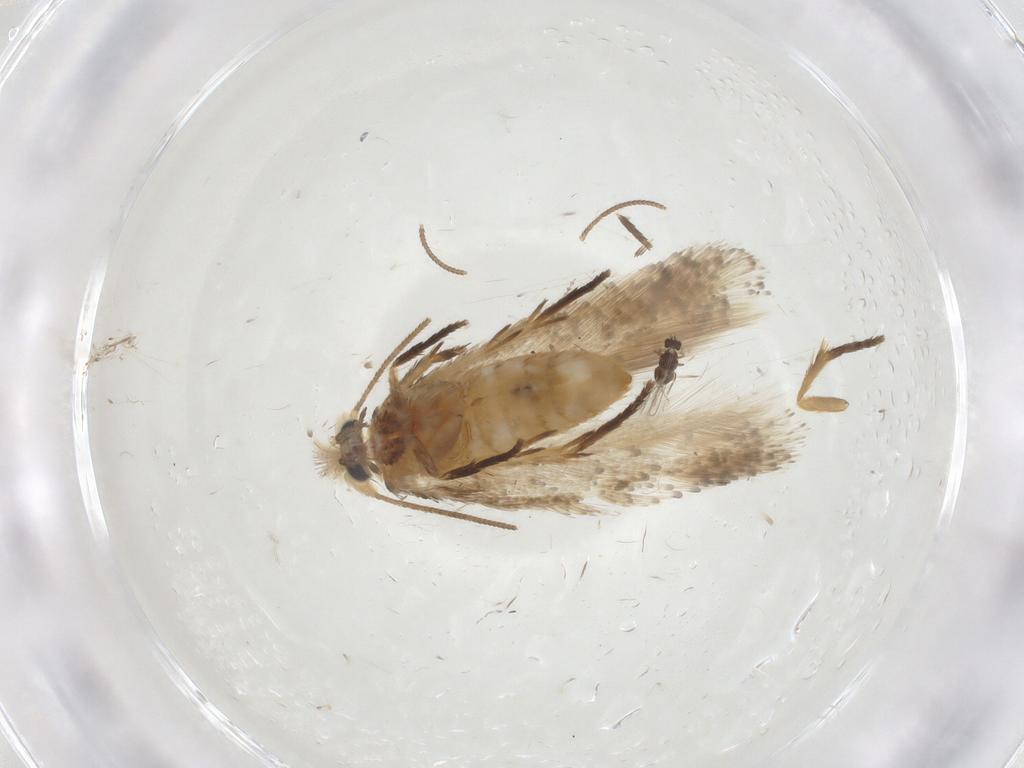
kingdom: Animalia
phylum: Arthropoda
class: Insecta
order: Lepidoptera
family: Nepticulidae
